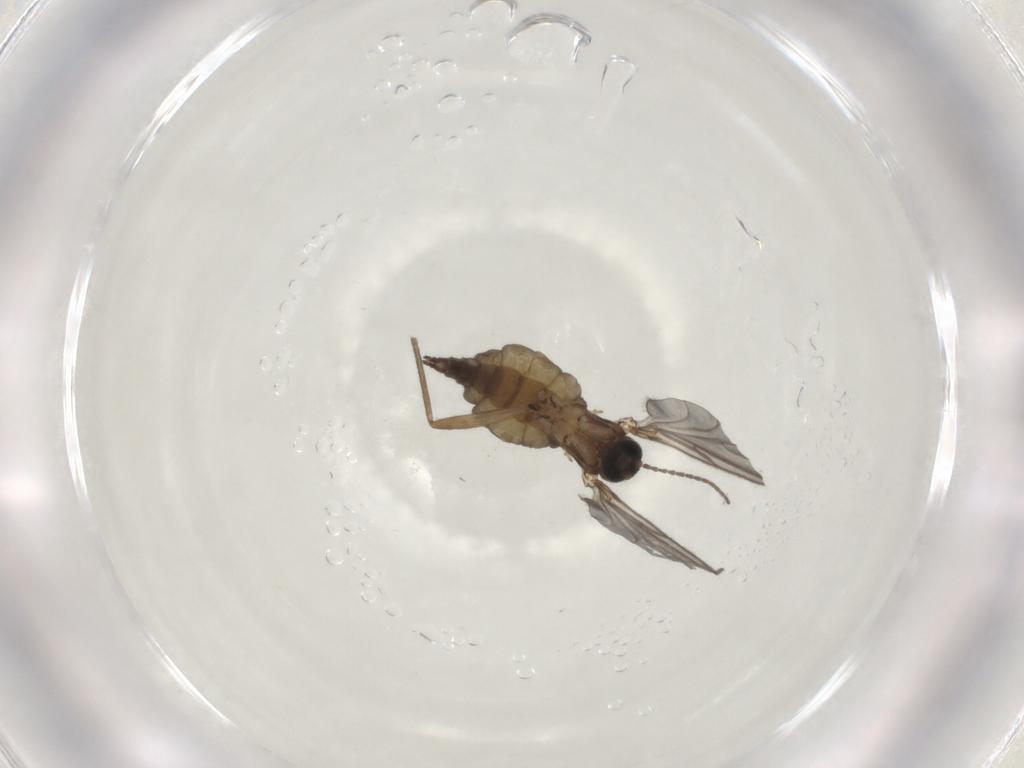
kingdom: Animalia
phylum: Arthropoda
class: Insecta
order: Diptera
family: Sciaridae
